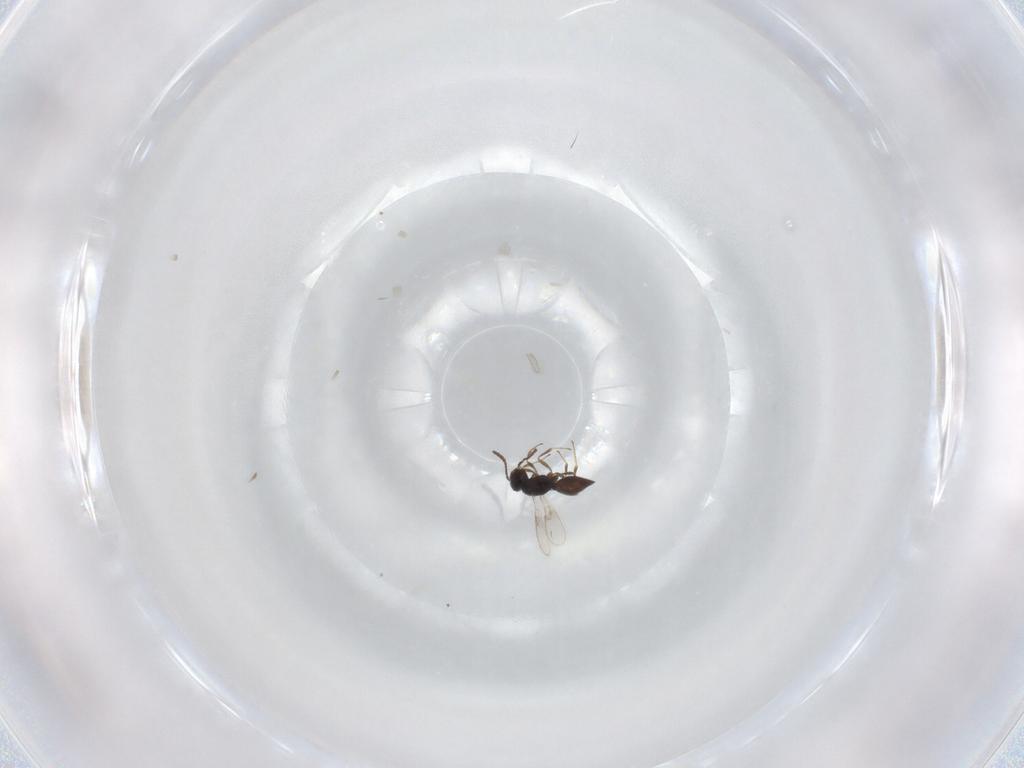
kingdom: Animalia
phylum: Arthropoda
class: Insecta
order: Hymenoptera
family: Scelionidae
